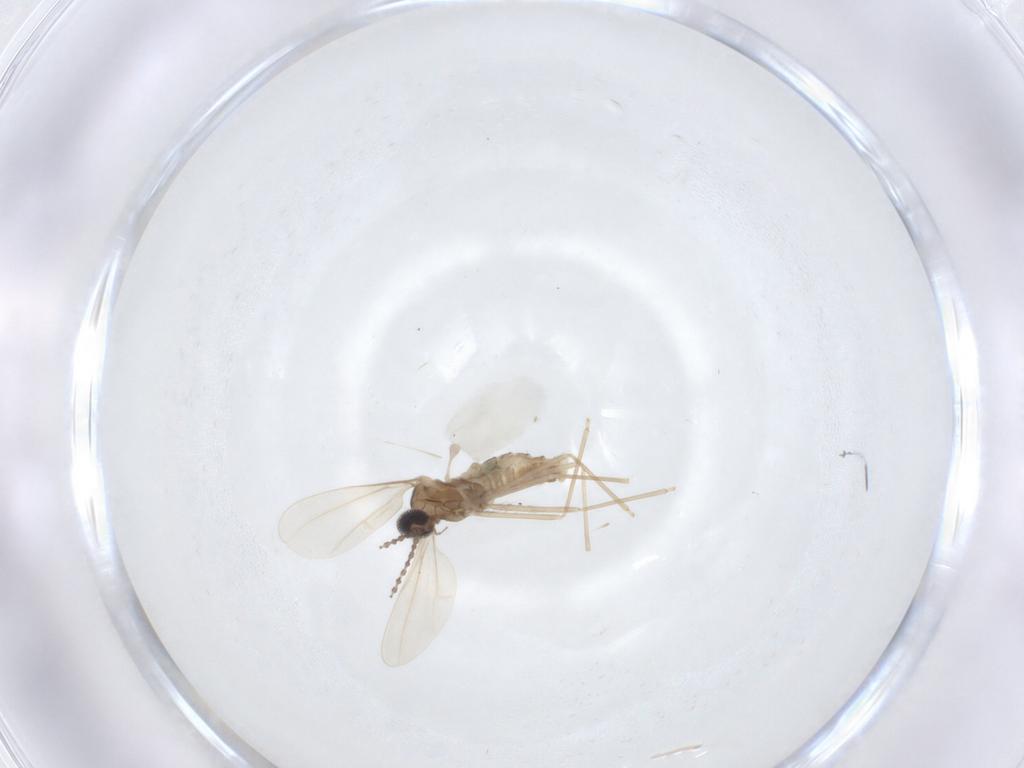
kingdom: Animalia
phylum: Arthropoda
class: Insecta
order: Diptera
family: Cecidomyiidae
